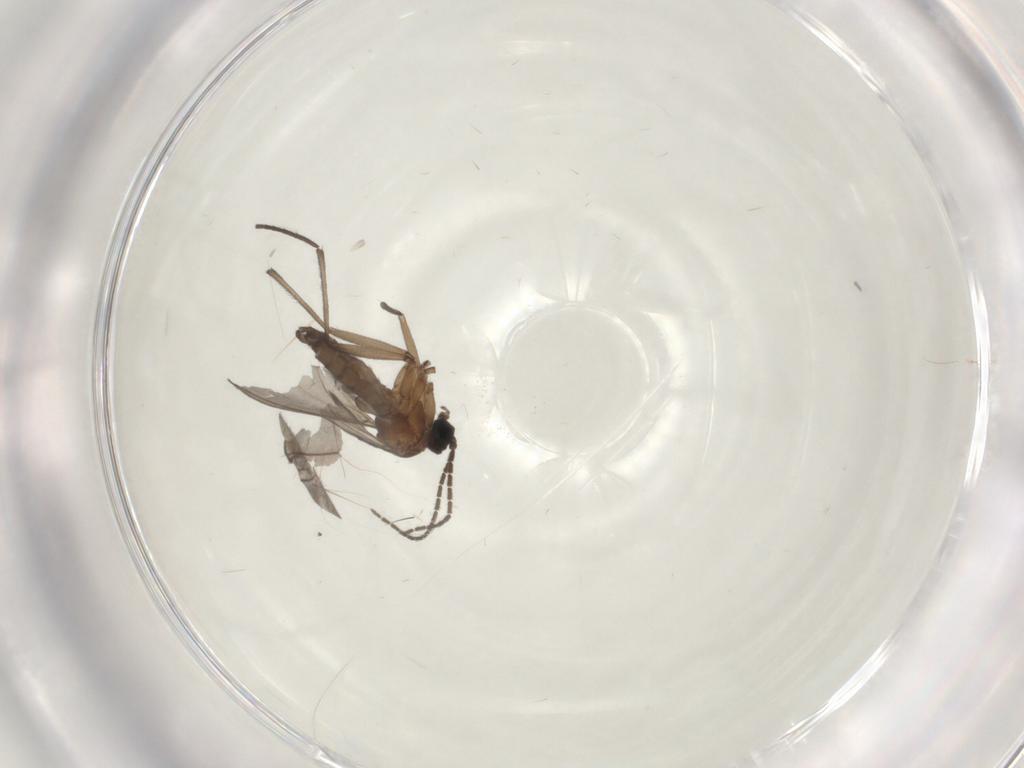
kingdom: Animalia
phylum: Arthropoda
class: Insecta
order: Diptera
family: Sciaridae
